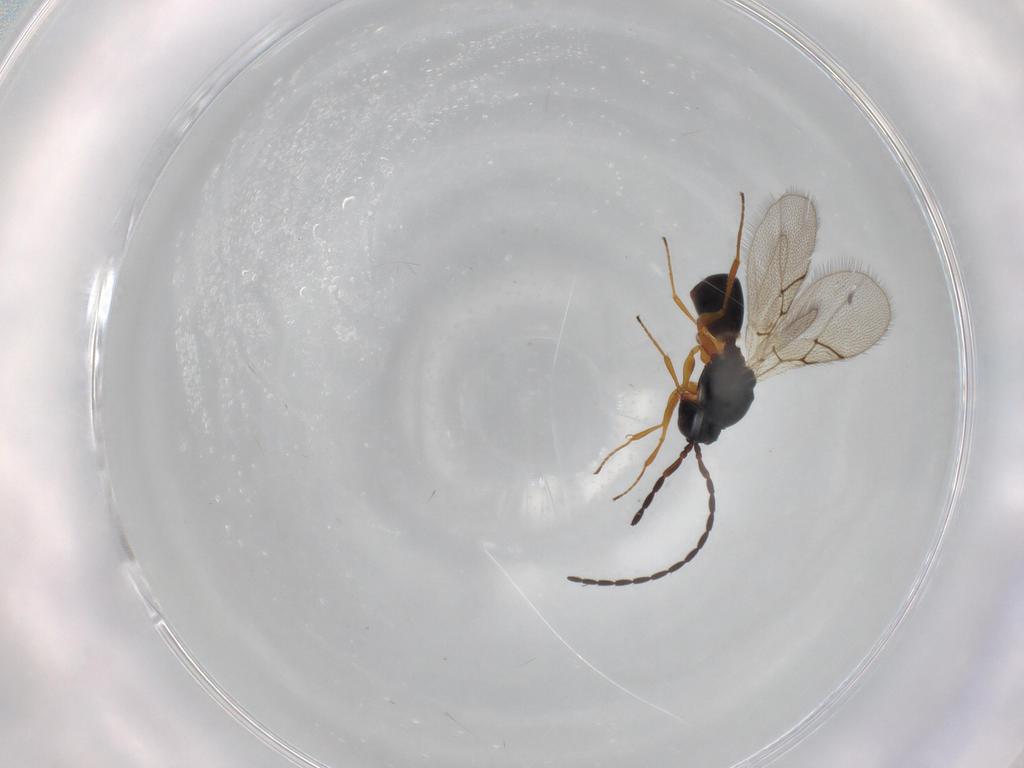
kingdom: Animalia
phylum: Arthropoda
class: Insecta
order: Hymenoptera
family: Figitidae
